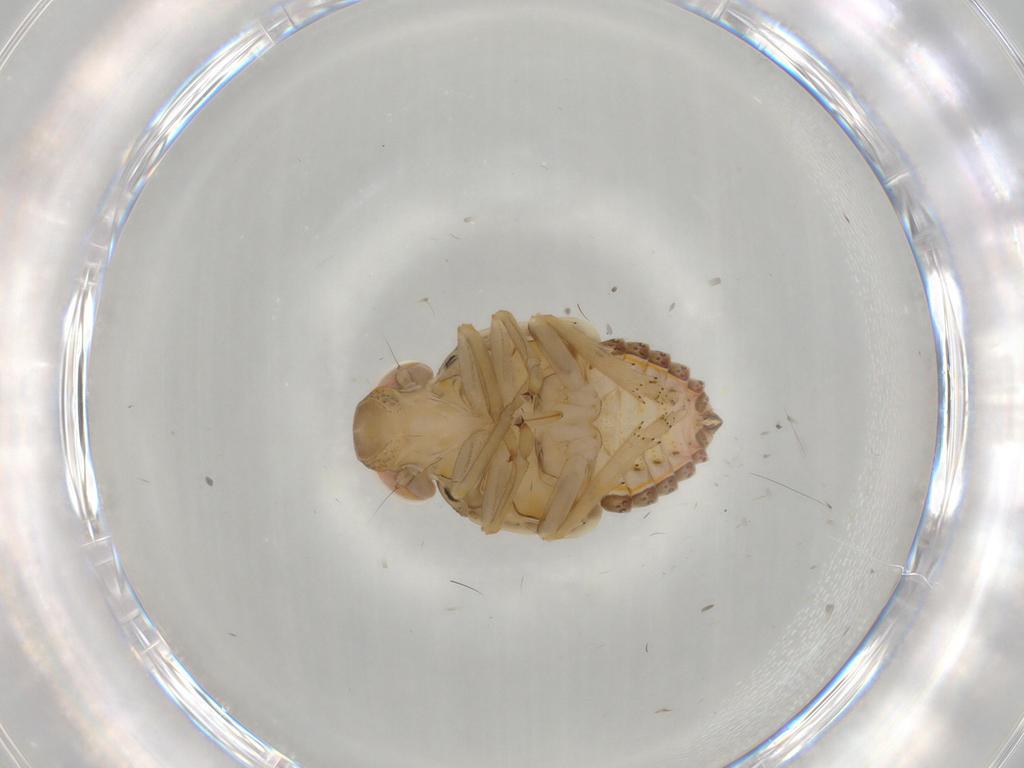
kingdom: Animalia
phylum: Arthropoda
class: Insecta
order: Hemiptera
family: Issidae
